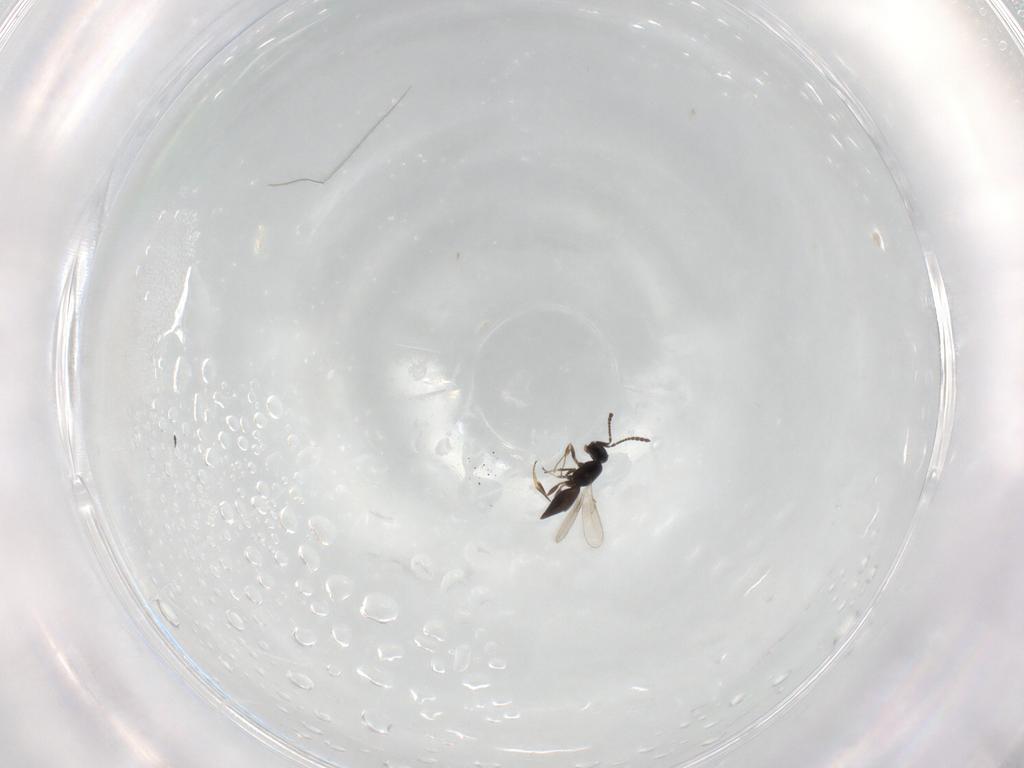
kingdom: Animalia
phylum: Arthropoda
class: Insecta
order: Hymenoptera
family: Scelionidae
